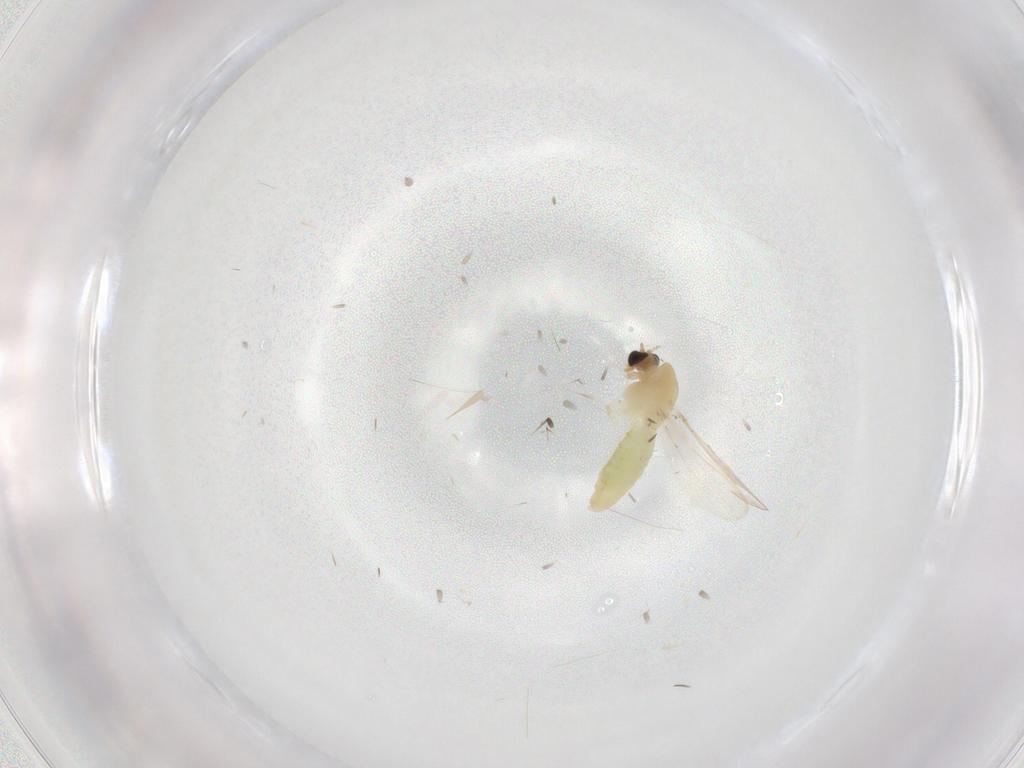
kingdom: Animalia
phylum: Arthropoda
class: Insecta
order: Diptera
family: Chironomidae
